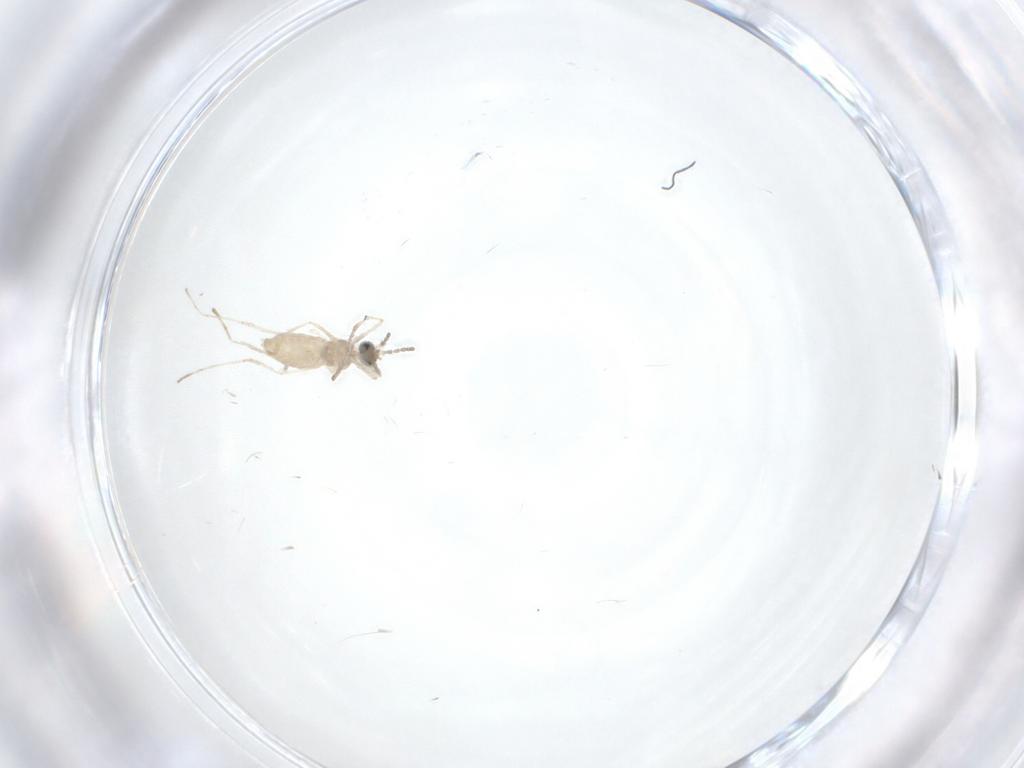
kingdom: Animalia
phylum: Arthropoda
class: Insecta
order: Diptera
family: Cecidomyiidae
